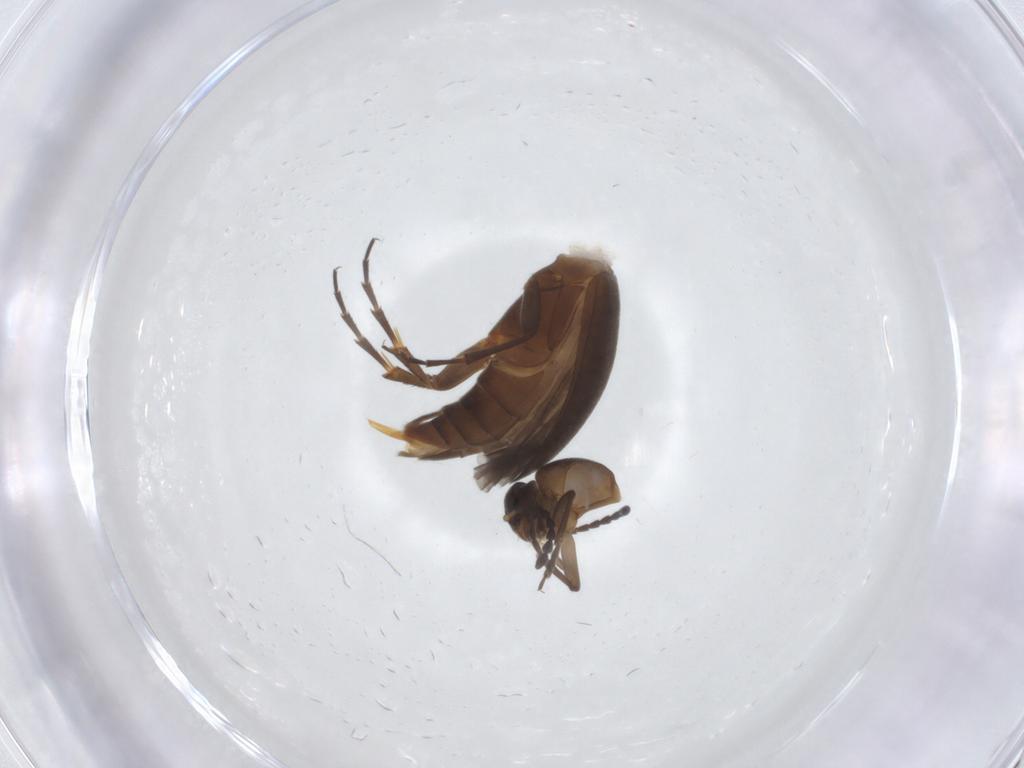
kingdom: Animalia
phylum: Arthropoda
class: Insecta
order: Coleoptera
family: Scraptiidae
